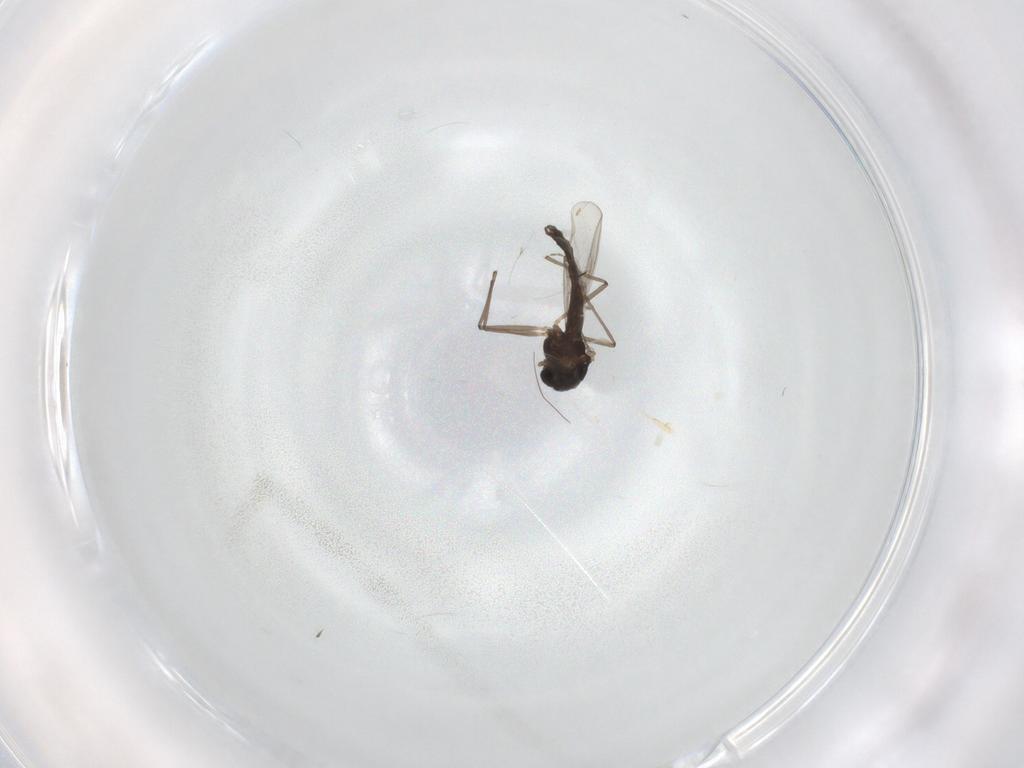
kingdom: Animalia
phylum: Arthropoda
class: Insecta
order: Diptera
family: Chironomidae
